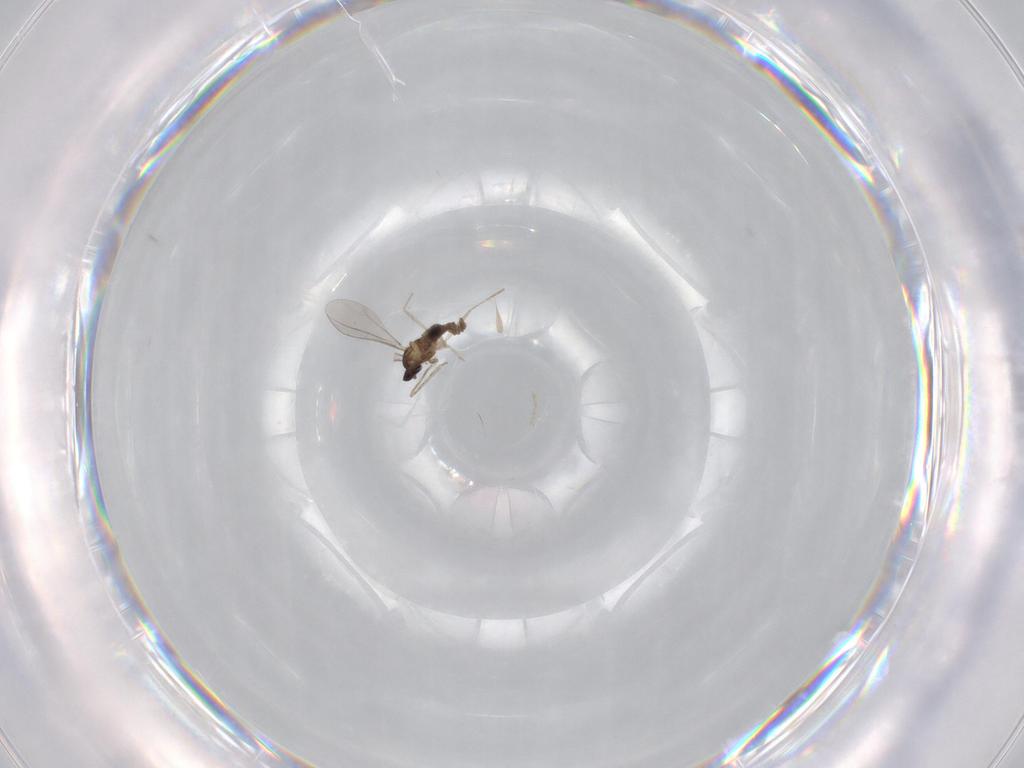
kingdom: Animalia
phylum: Arthropoda
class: Insecta
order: Diptera
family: Ceratopogonidae
